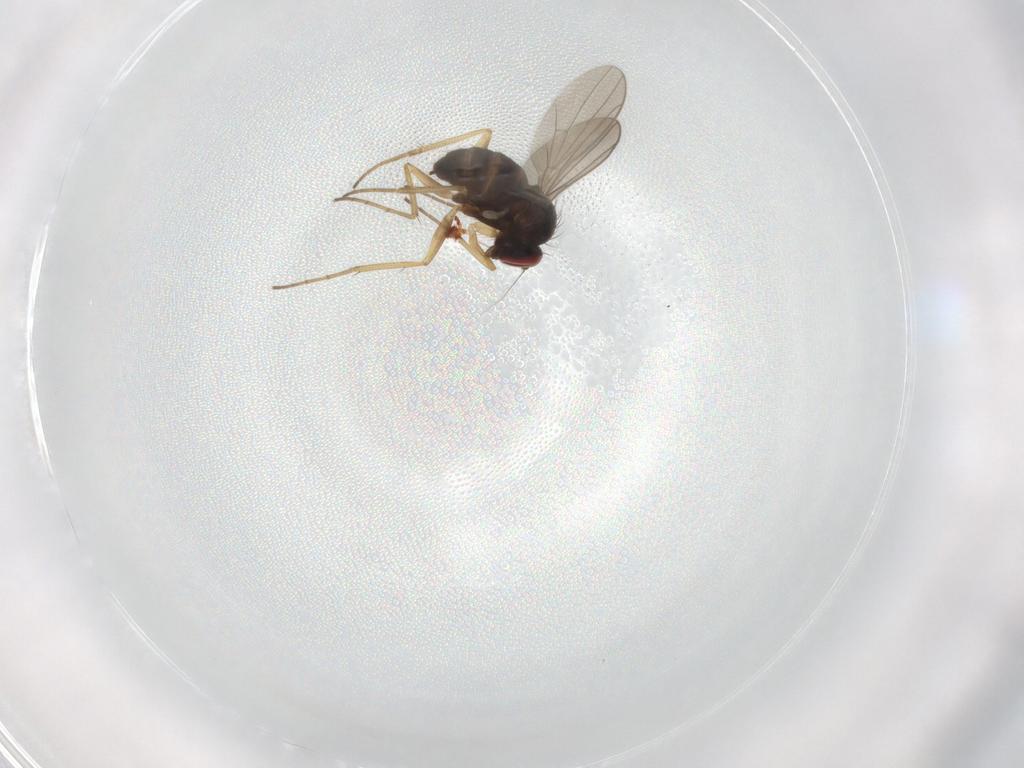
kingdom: Animalia
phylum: Arthropoda
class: Insecta
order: Diptera
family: Dolichopodidae
